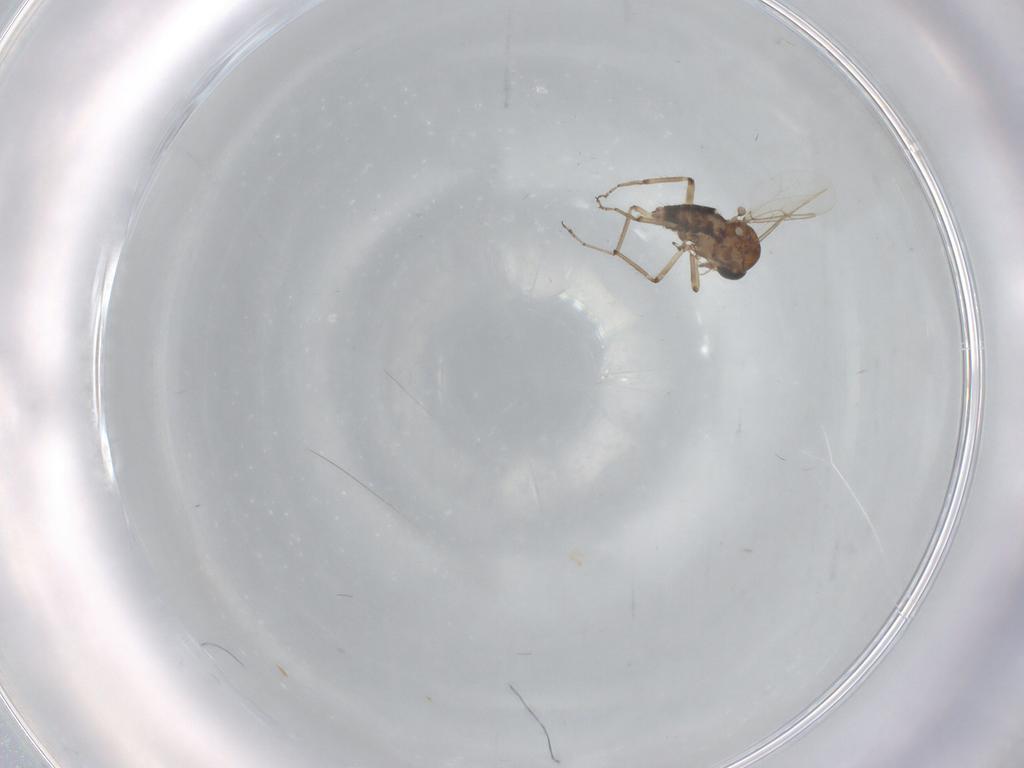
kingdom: Animalia
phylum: Arthropoda
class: Insecta
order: Diptera
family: Ceratopogonidae
